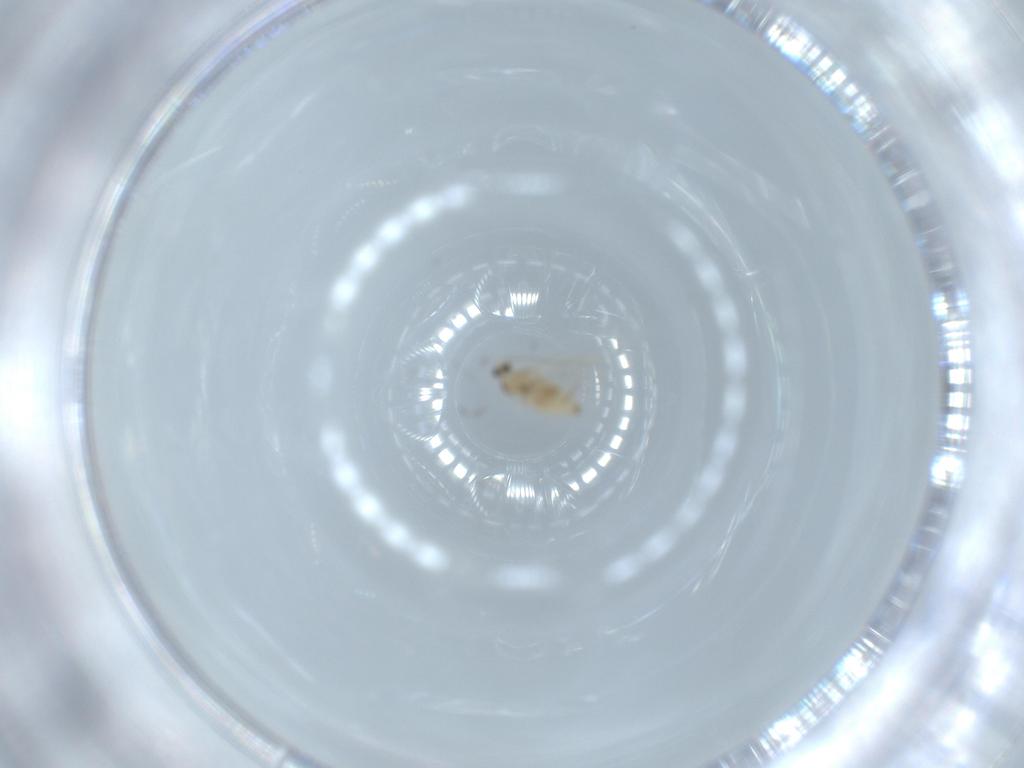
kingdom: Animalia
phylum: Arthropoda
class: Insecta
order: Diptera
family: Cecidomyiidae
